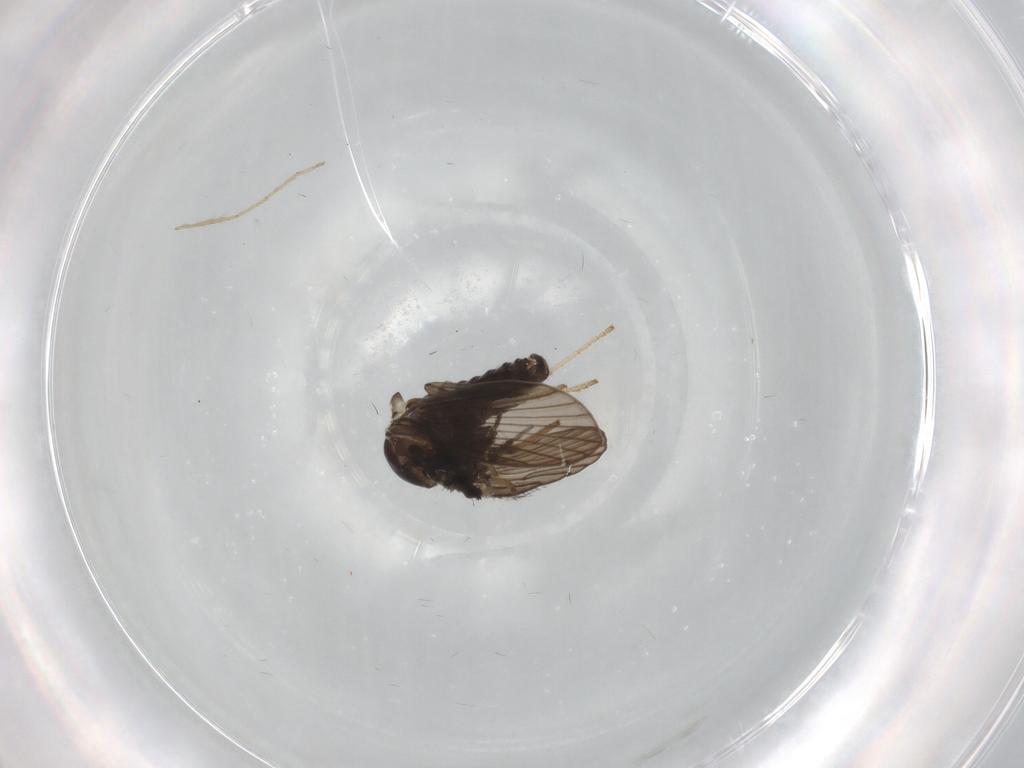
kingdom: Animalia
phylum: Arthropoda
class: Insecta
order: Diptera
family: Psychodidae
